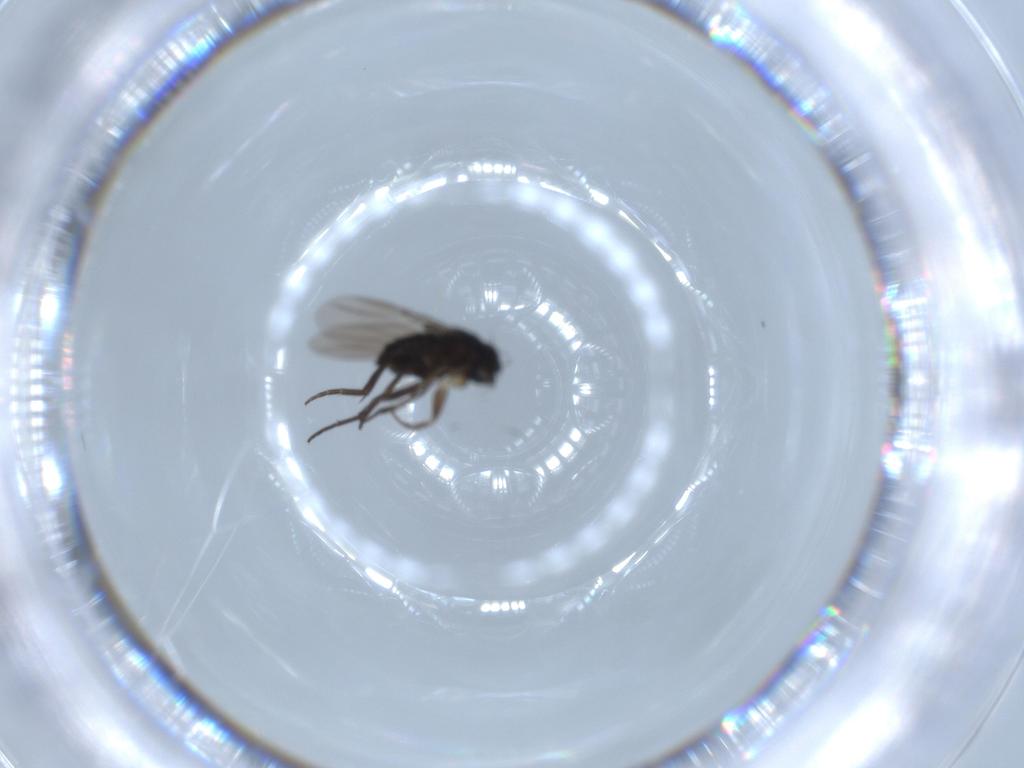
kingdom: Animalia
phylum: Arthropoda
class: Insecta
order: Diptera
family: Phoridae
